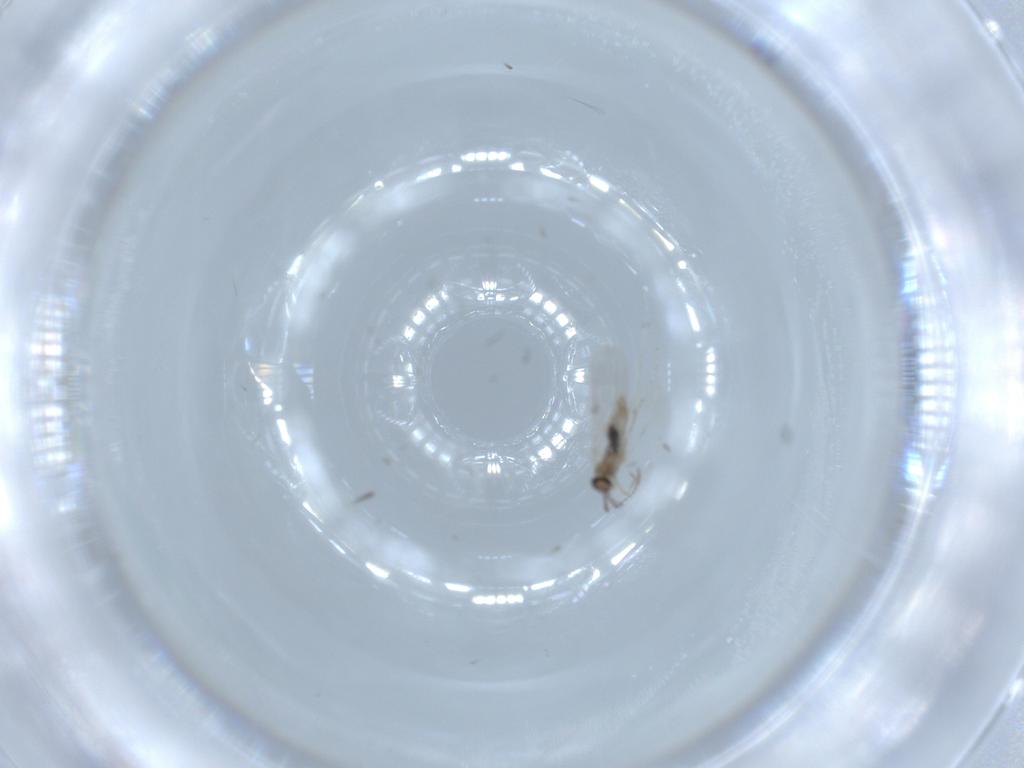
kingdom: Animalia
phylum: Arthropoda
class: Insecta
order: Diptera
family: Cecidomyiidae
